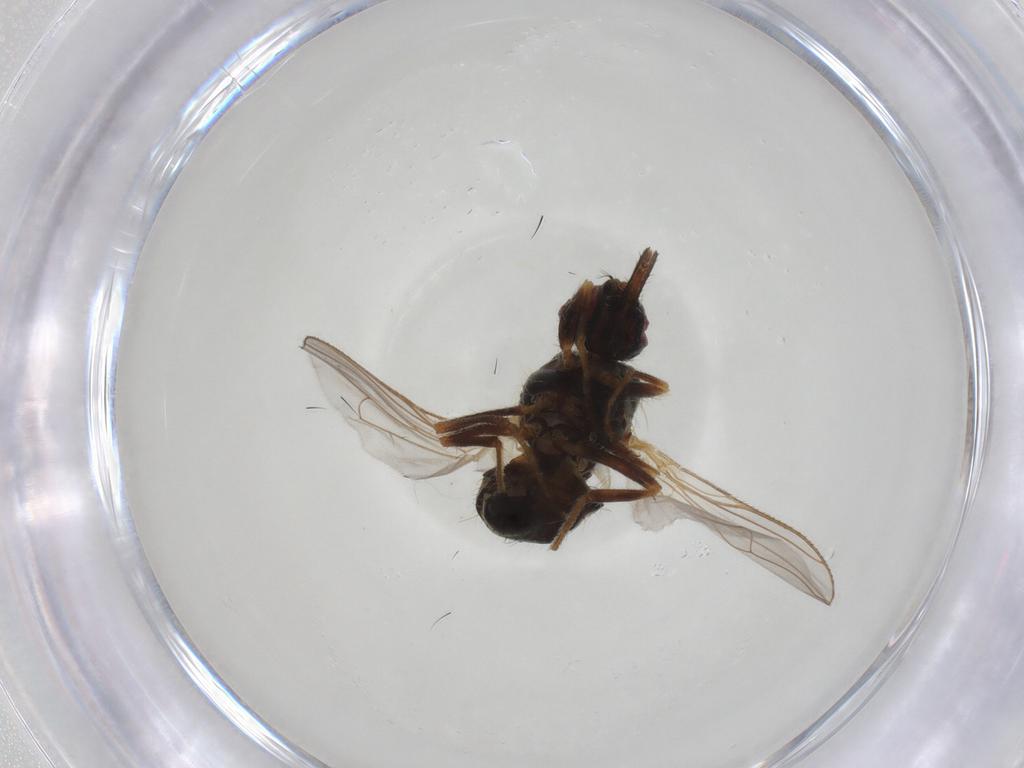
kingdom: Animalia
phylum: Arthropoda
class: Insecta
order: Diptera
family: Muscidae
